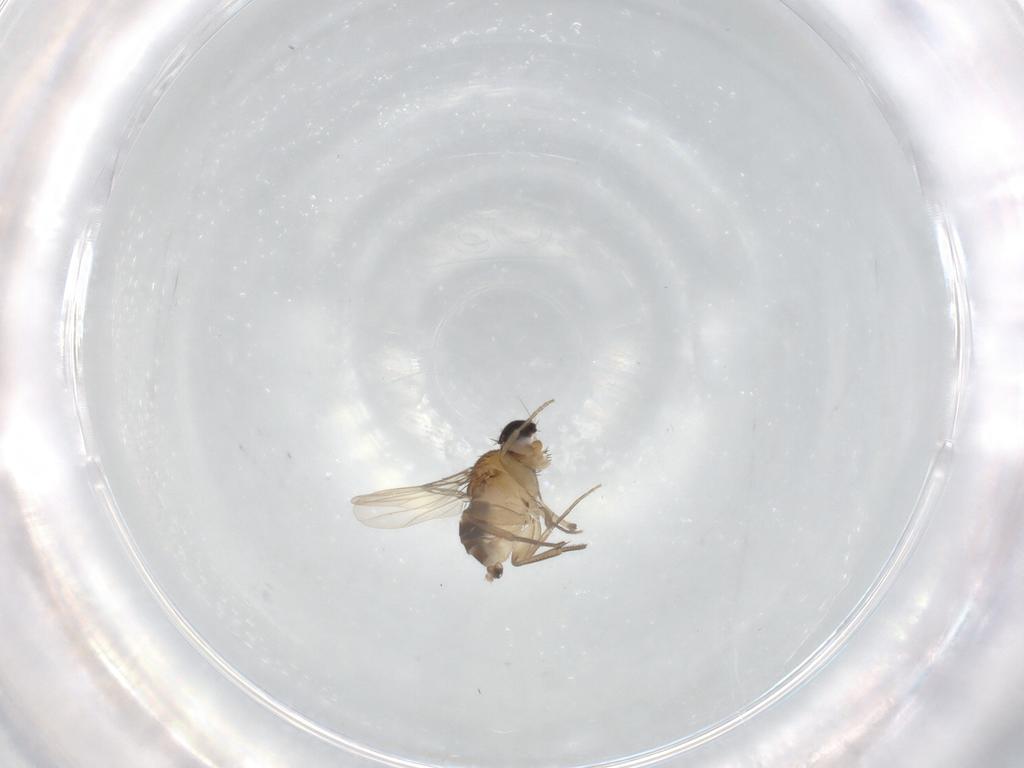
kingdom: Animalia
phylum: Arthropoda
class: Insecta
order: Diptera
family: Phoridae
